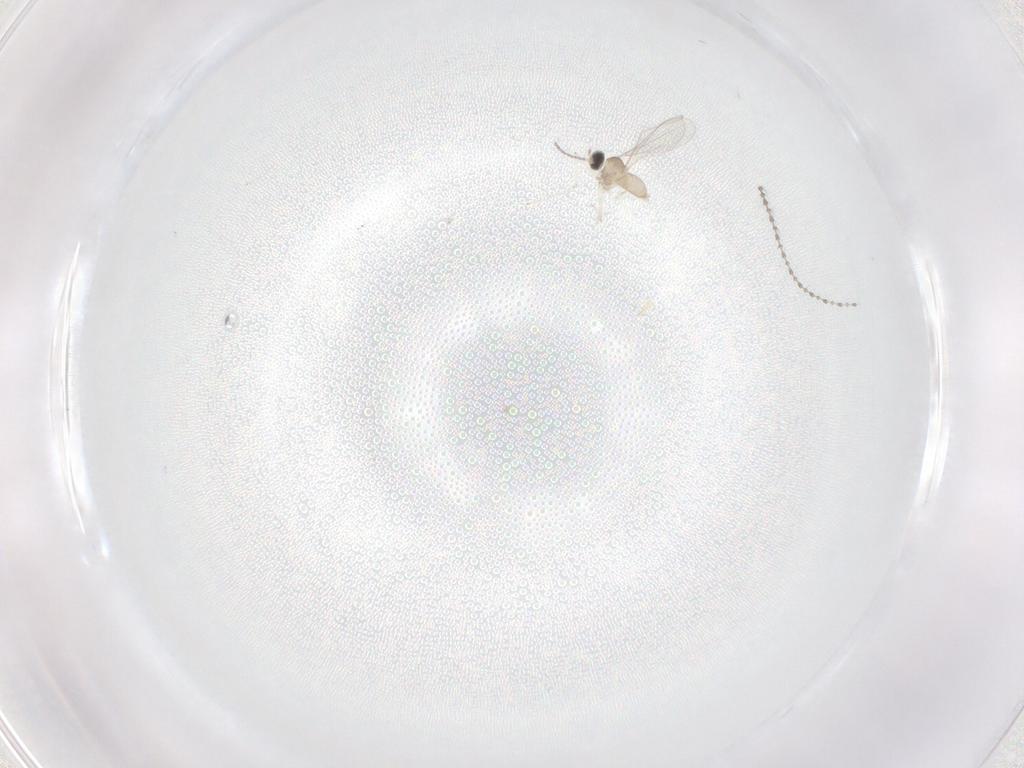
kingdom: Animalia
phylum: Arthropoda
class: Insecta
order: Diptera
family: Cecidomyiidae
